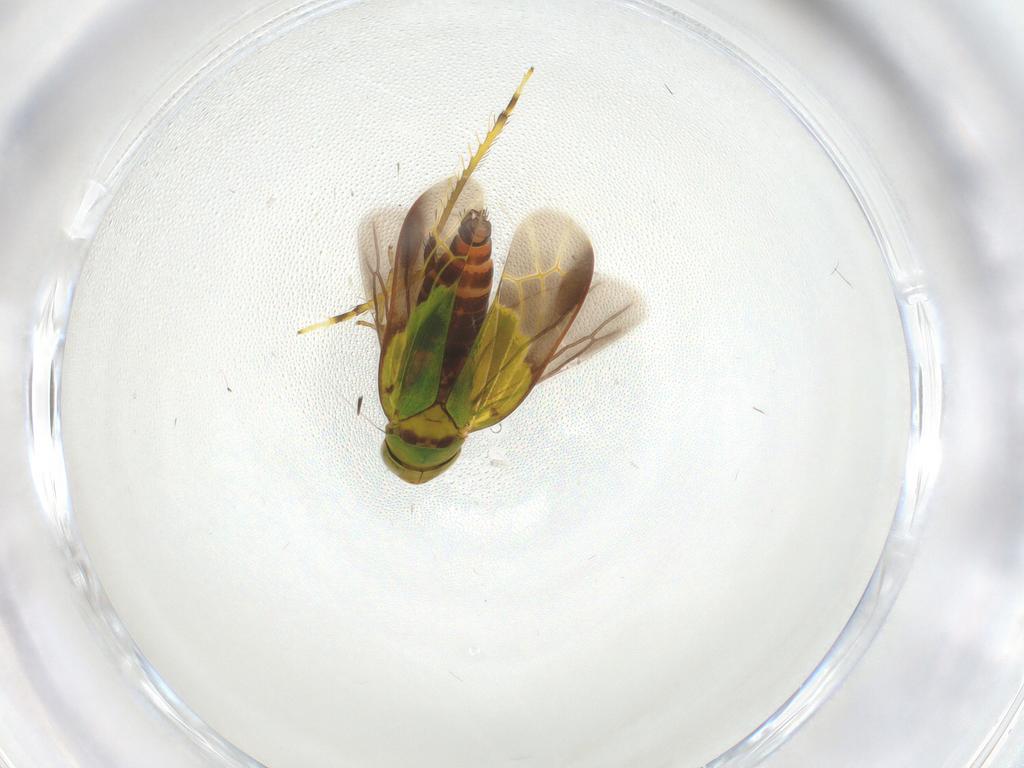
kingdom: Animalia
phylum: Arthropoda
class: Insecta
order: Hemiptera
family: Cicadellidae
